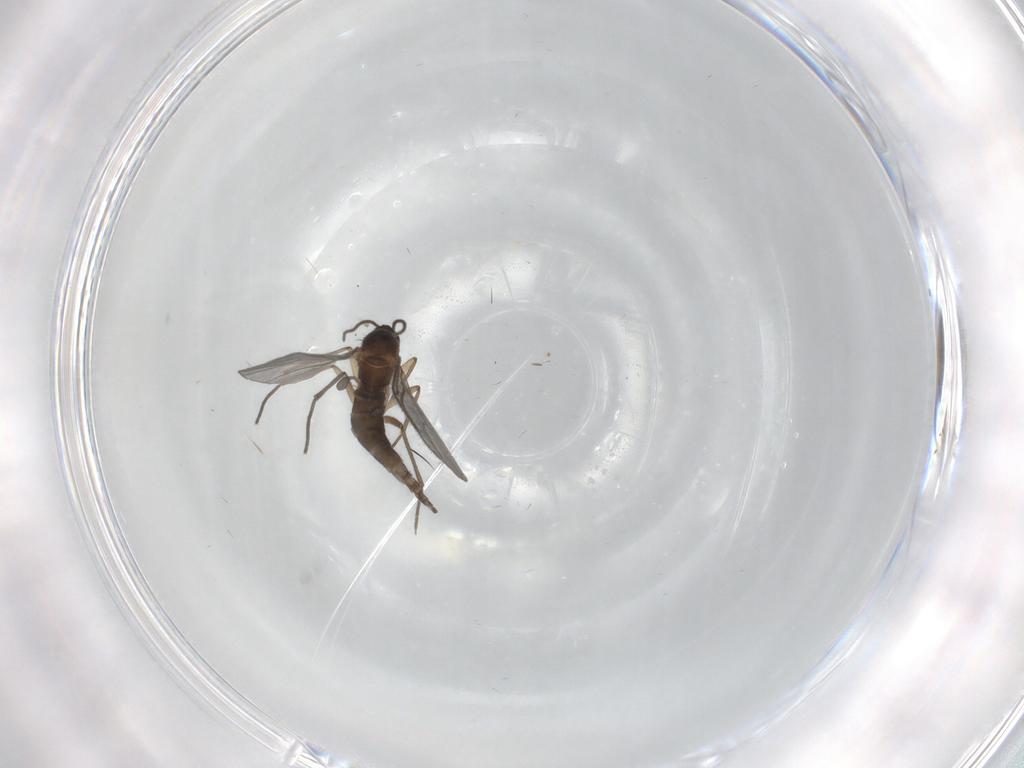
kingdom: Animalia
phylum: Arthropoda
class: Insecta
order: Diptera
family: Sciaridae
